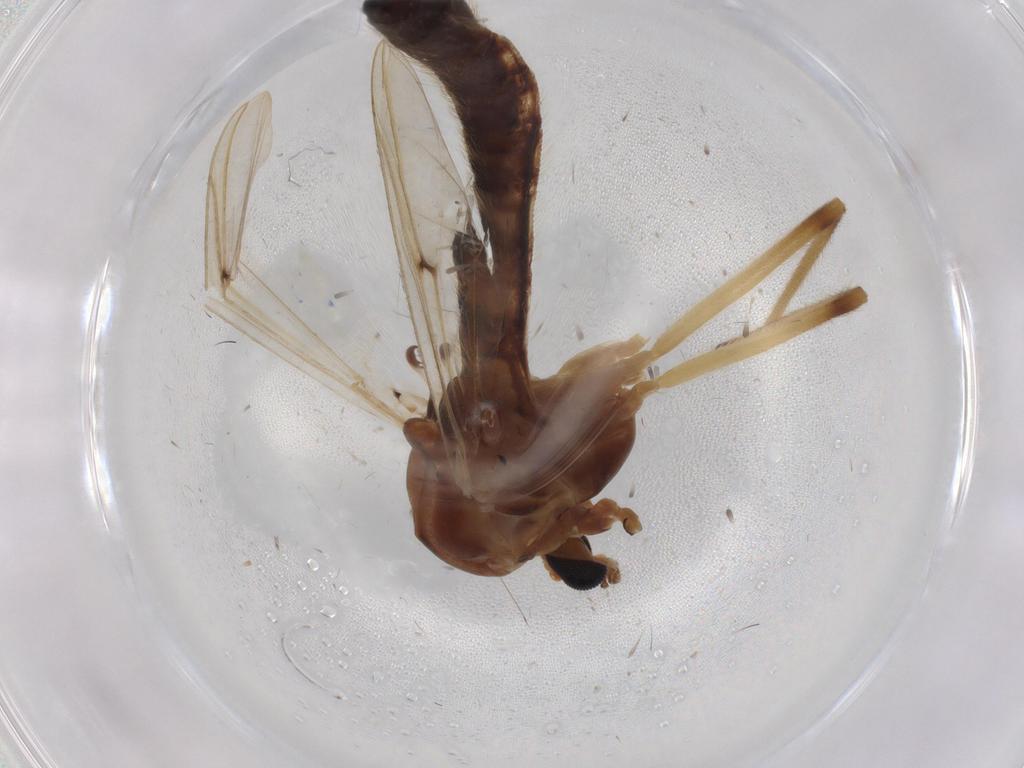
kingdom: Animalia
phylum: Arthropoda
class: Insecta
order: Diptera
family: Chironomidae
